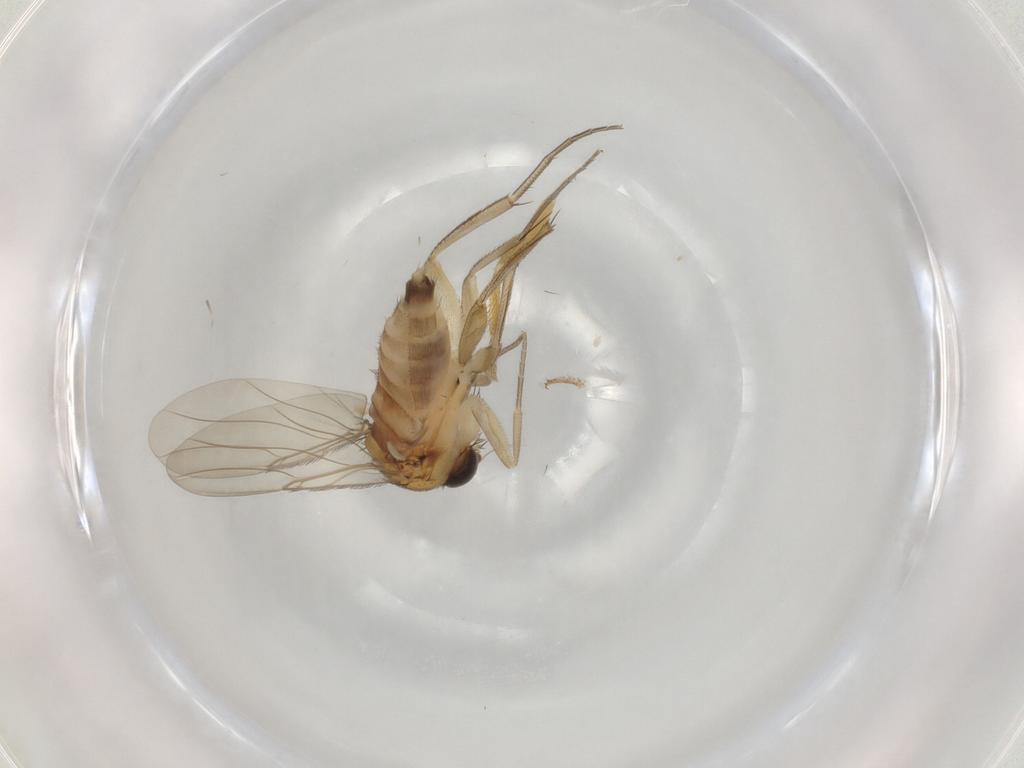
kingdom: Animalia
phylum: Arthropoda
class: Insecta
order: Diptera
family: Phoridae
